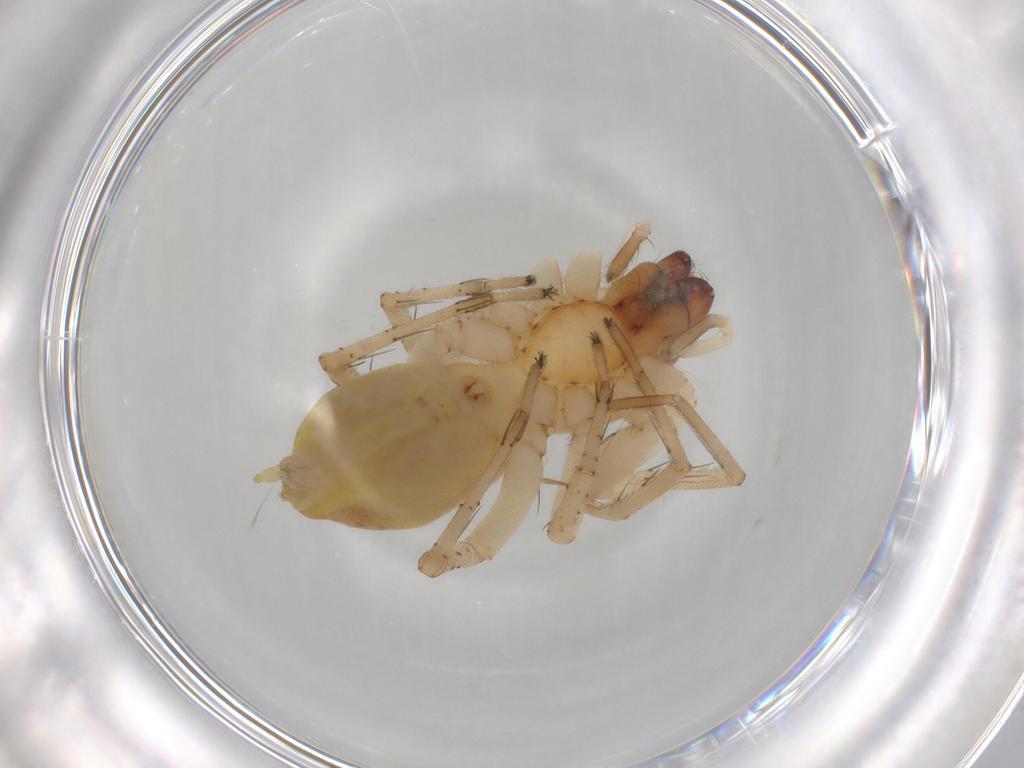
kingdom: Animalia
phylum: Arthropoda
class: Arachnida
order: Araneae
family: Anyphaenidae
